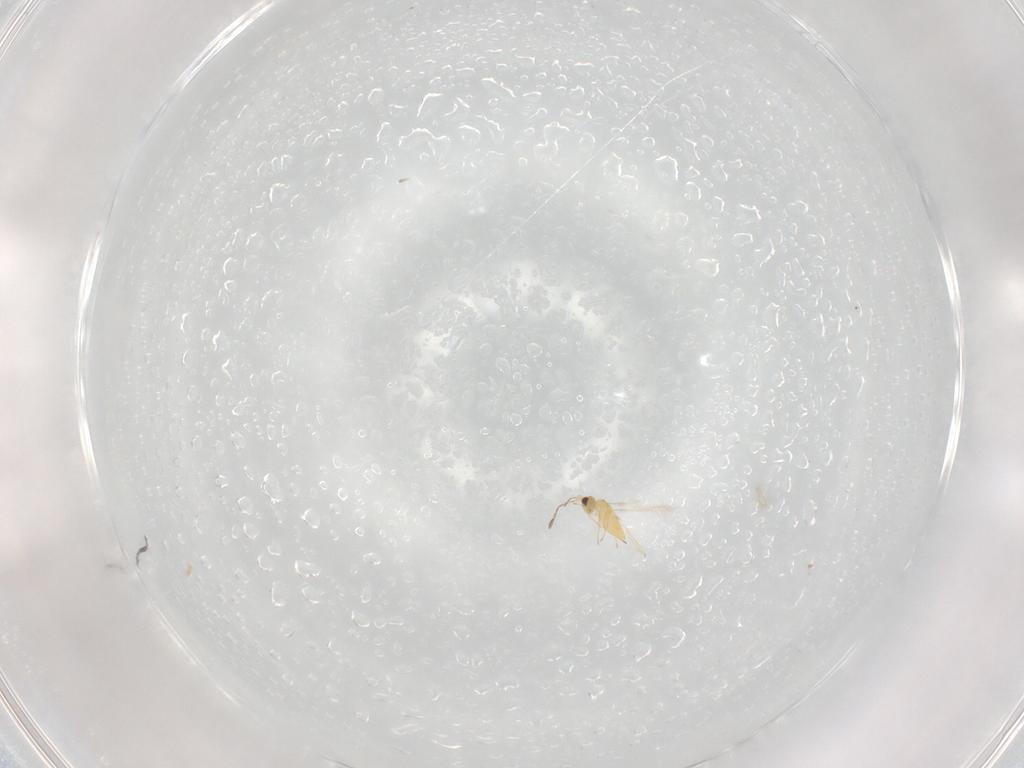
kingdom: Animalia
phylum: Arthropoda
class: Insecta
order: Hymenoptera
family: Mymaridae
